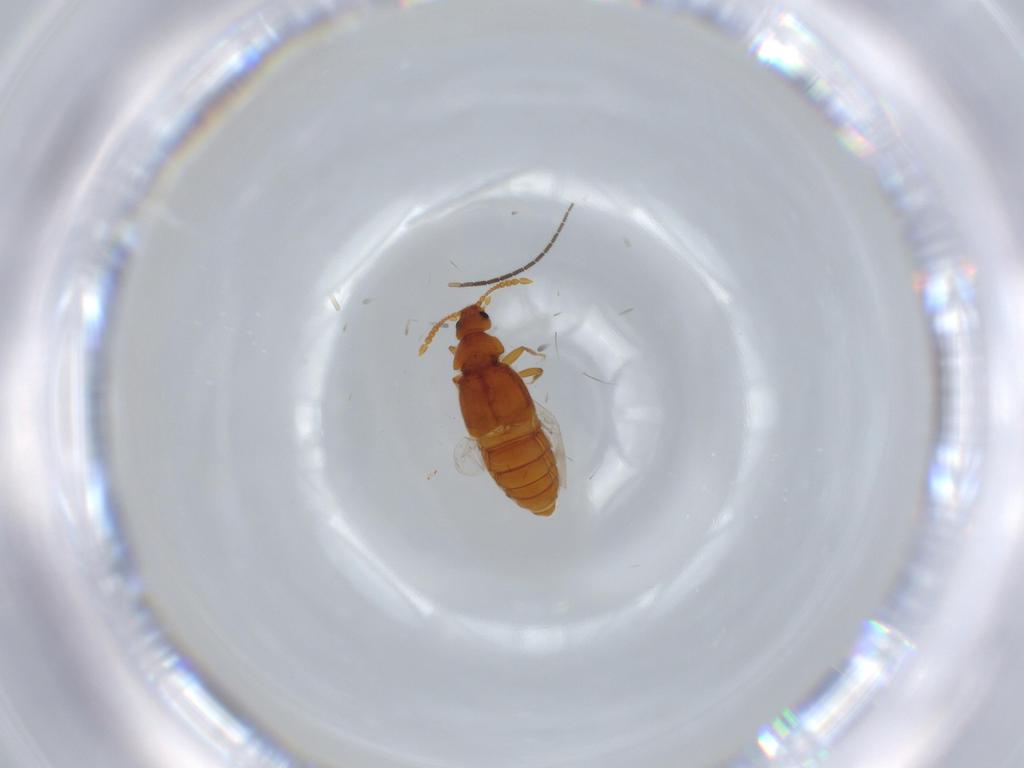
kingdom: Animalia
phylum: Arthropoda
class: Insecta
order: Coleoptera
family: Staphylinidae
